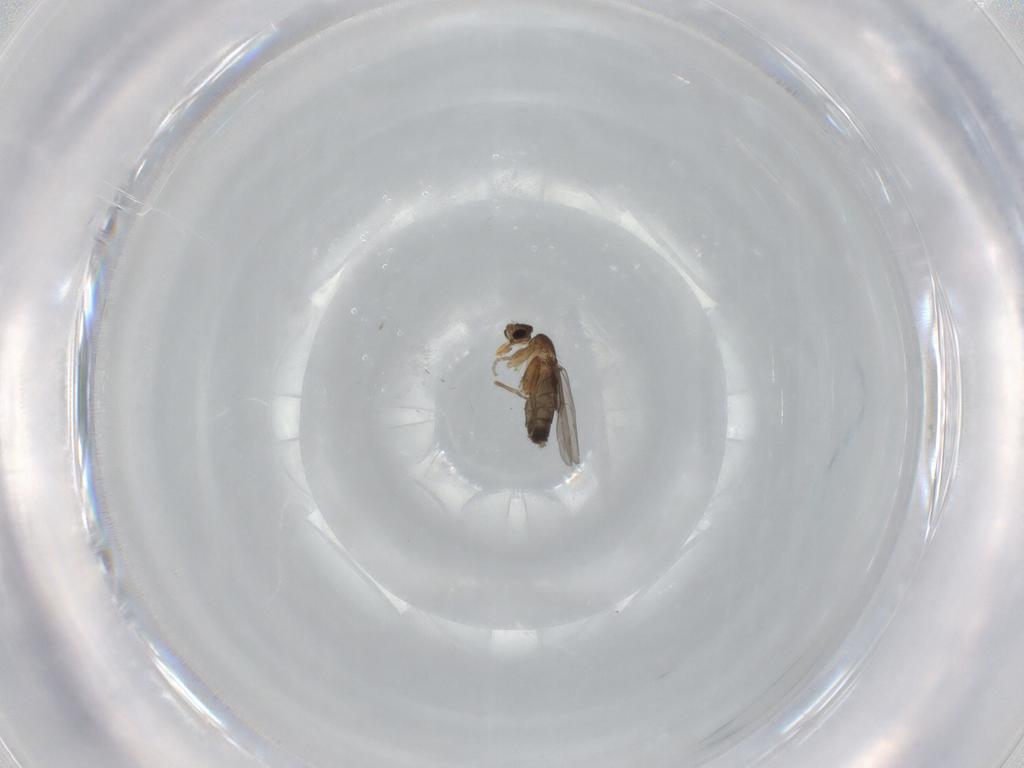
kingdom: Animalia
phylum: Arthropoda
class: Insecta
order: Diptera
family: Phoridae
